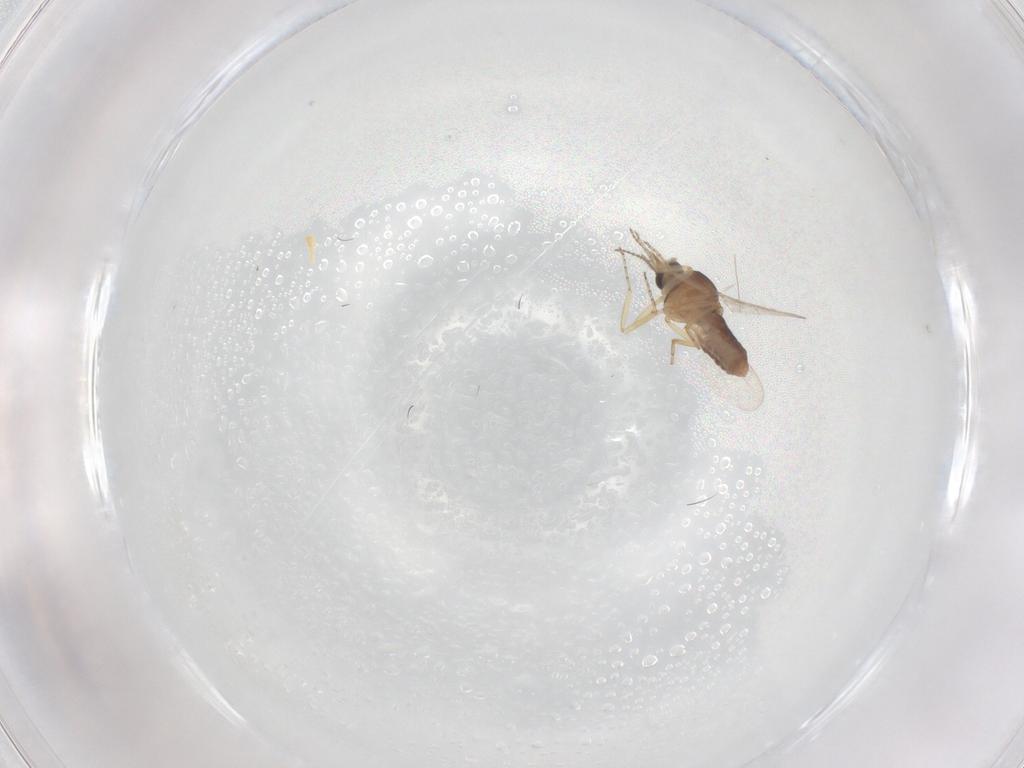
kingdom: Animalia
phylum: Arthropoda
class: Insecta
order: Diptera
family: Ceratopogonidae
